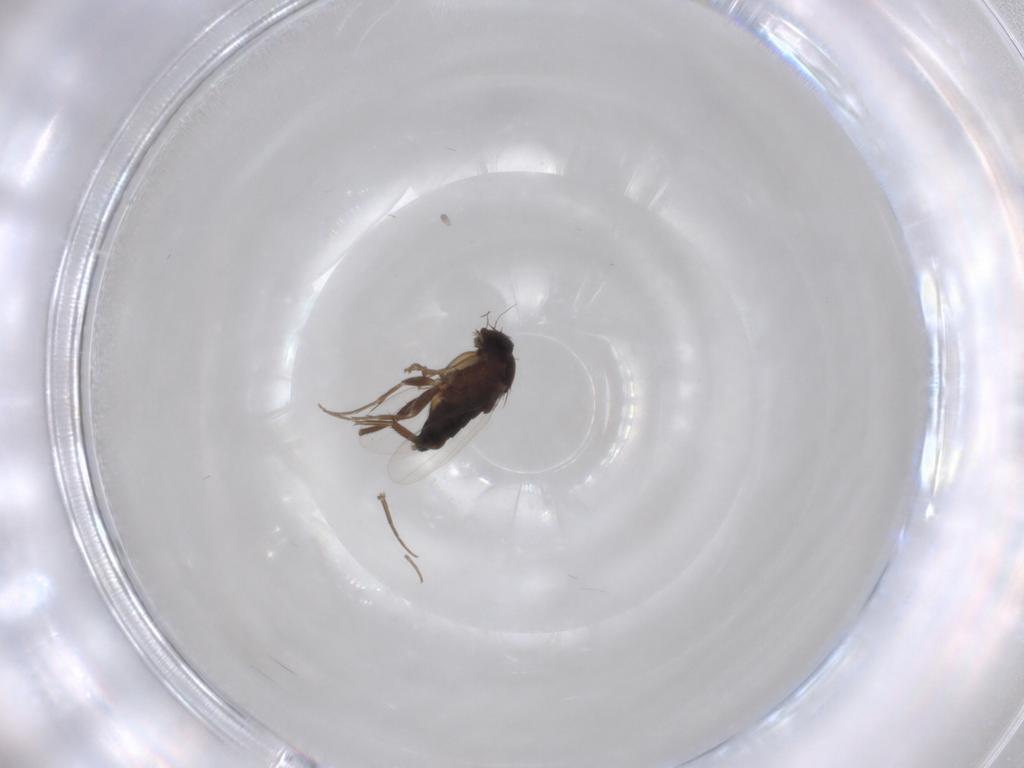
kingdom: Animalia
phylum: Arthropoda
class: Insecta
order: Diptera
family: Phoridae
